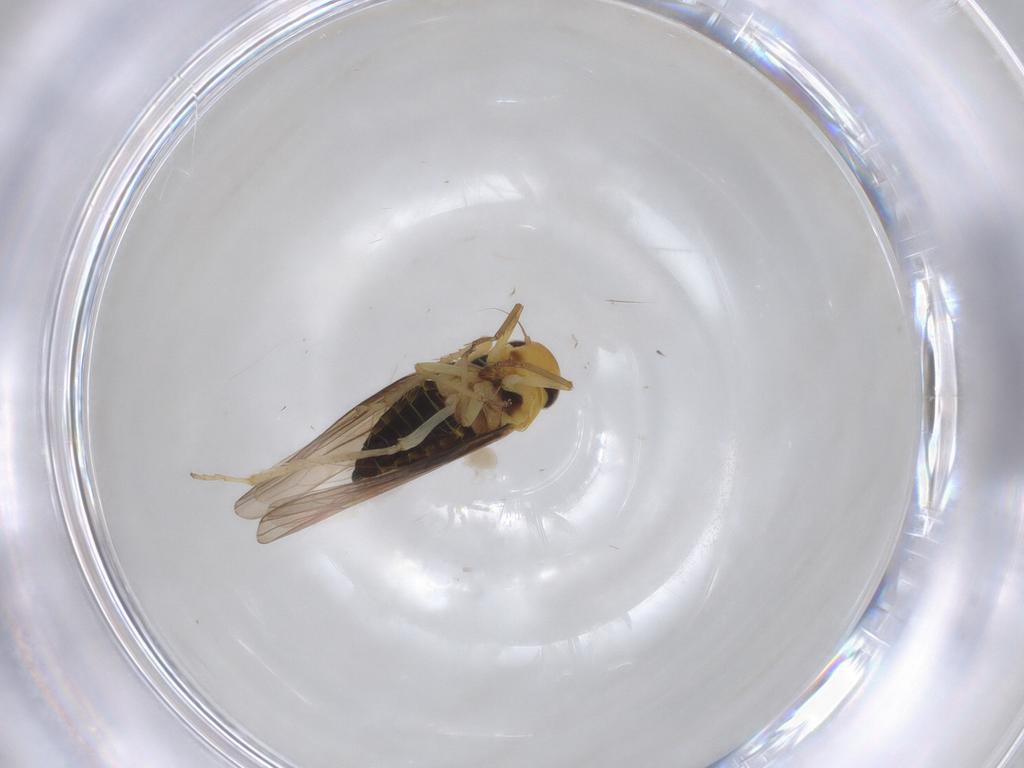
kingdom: Animalia
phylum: Arthropoda
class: Insecta
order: Hemiptera
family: Cicadellidae
